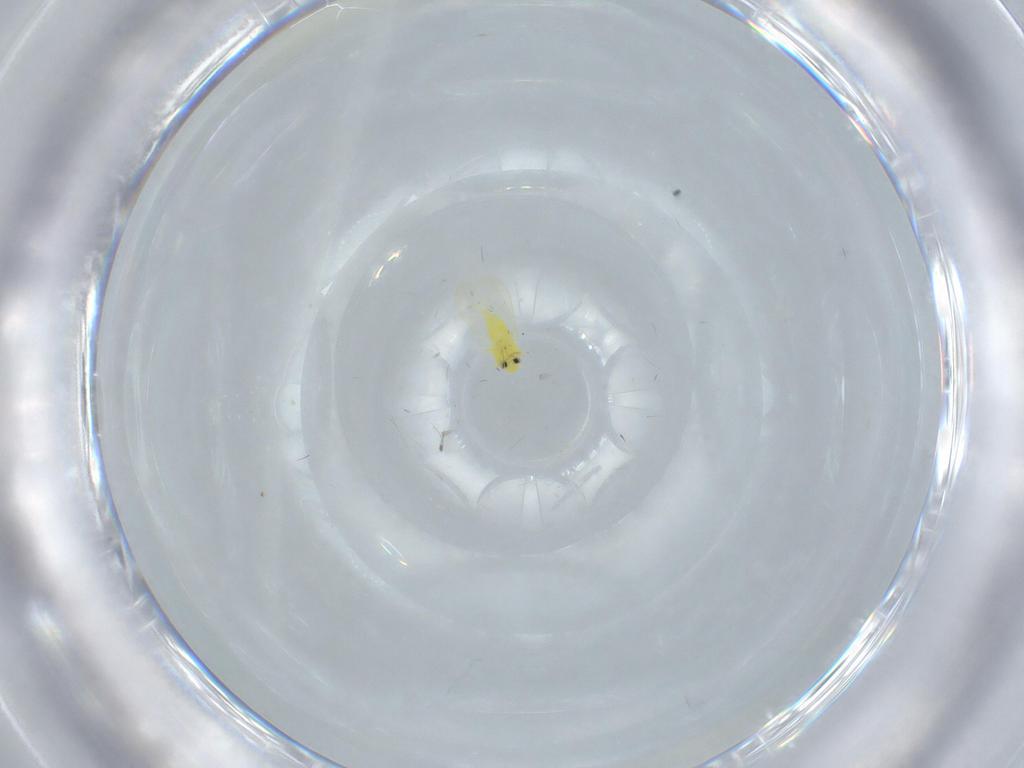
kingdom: Animalia
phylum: Arthropoda
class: Insecta
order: Hemiptera
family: Aleyrodidae
